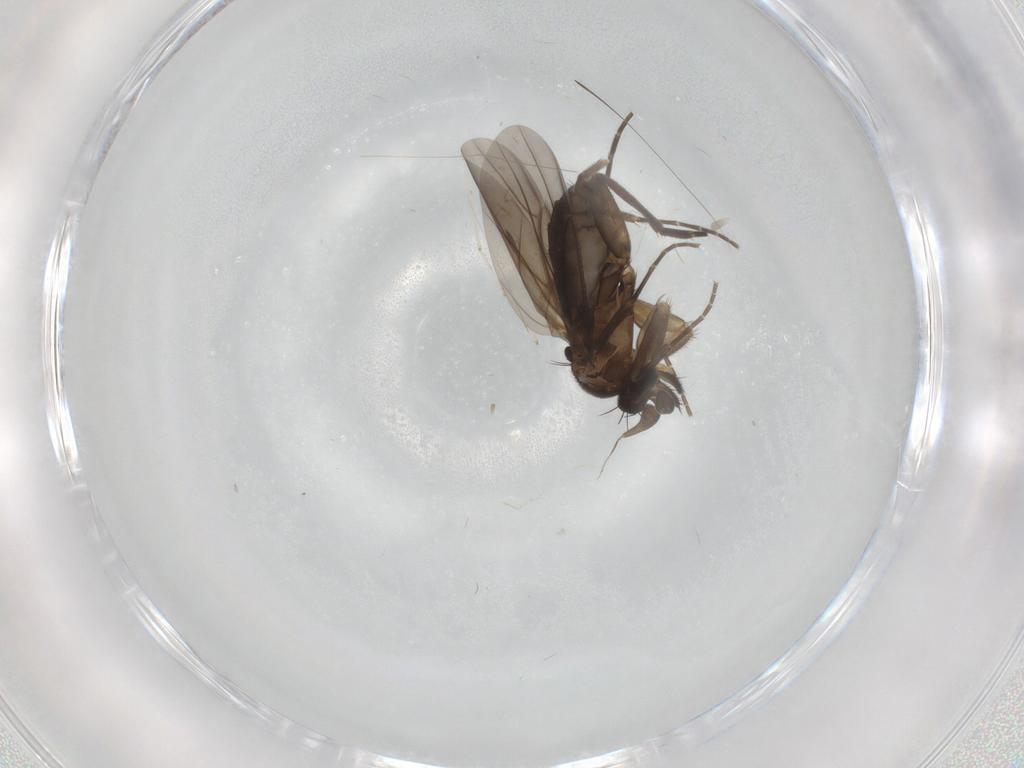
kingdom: Animalia
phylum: Arthropoda
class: Insecta
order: Diptera
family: Phoridae
